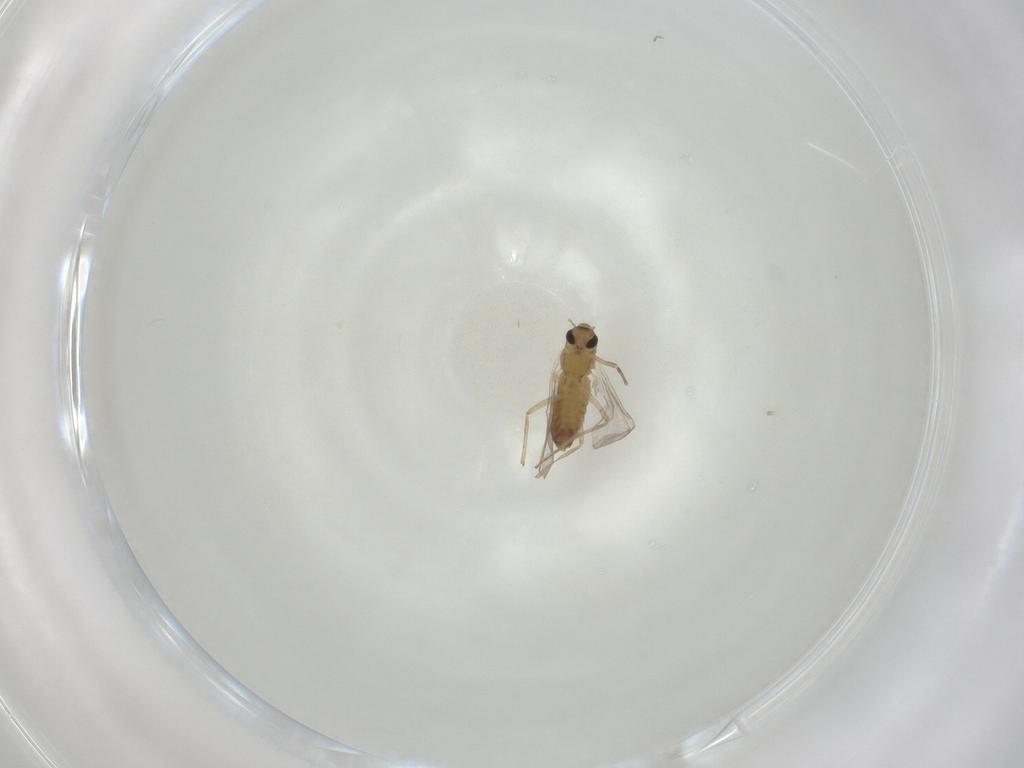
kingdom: Animalia
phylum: Arthropoda
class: Insecta
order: Diptera
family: Chironomidae
